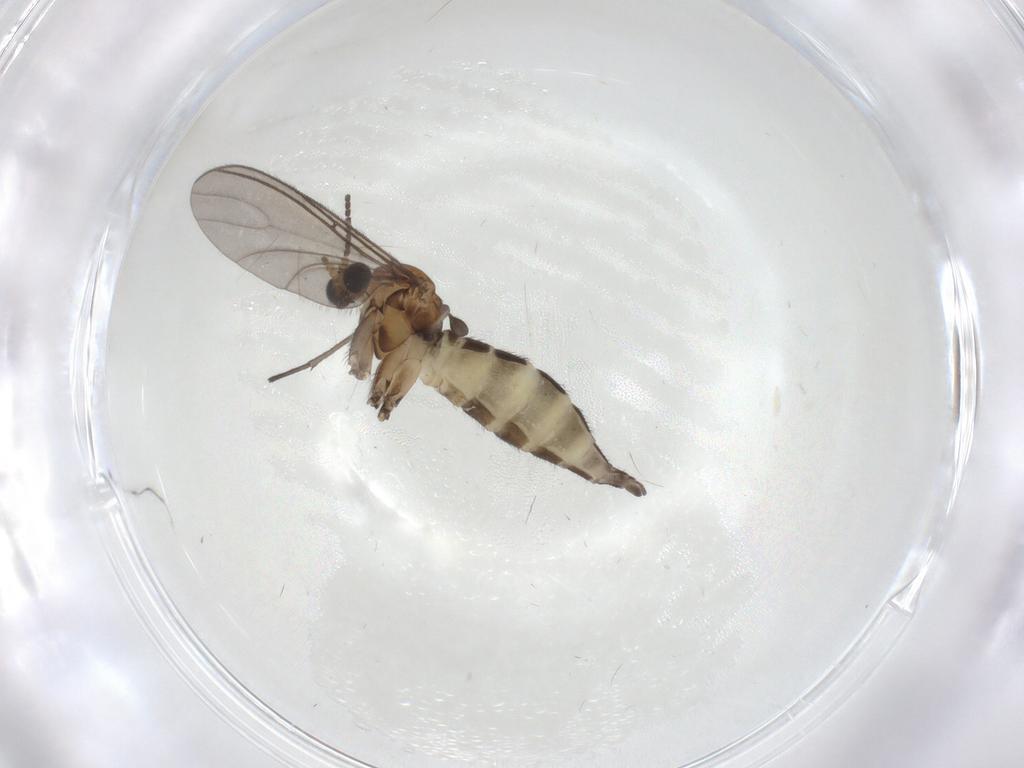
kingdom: Animalia
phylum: Arthropoda
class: Insecta
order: Diptera
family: Sciaridae
